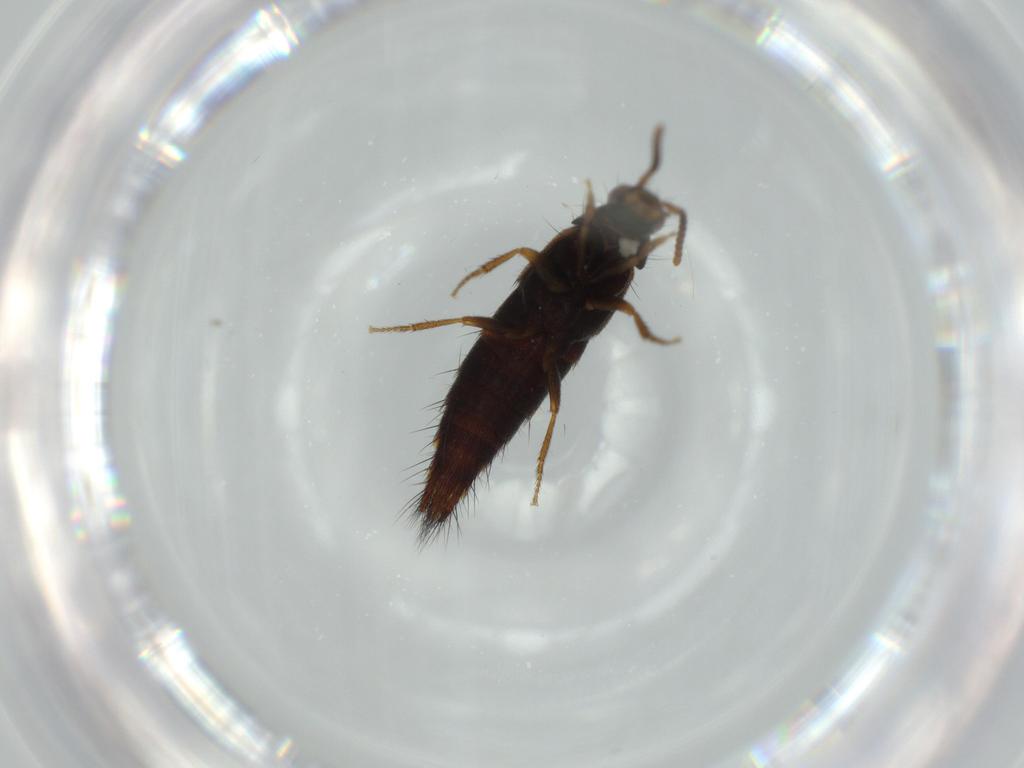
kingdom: Animalia
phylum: Arthropoda
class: Insecta
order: Coleoptera
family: Staphylinidae
